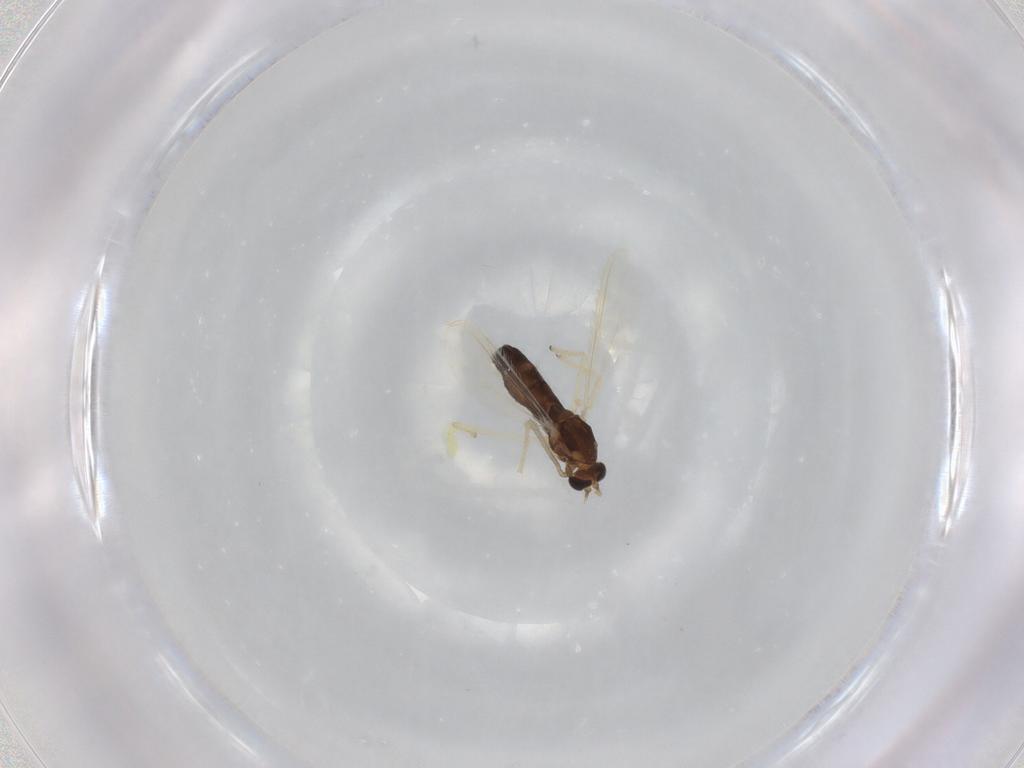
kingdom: Animalia
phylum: Arthropoda
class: Insecta
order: Diptera
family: Chironomidae
